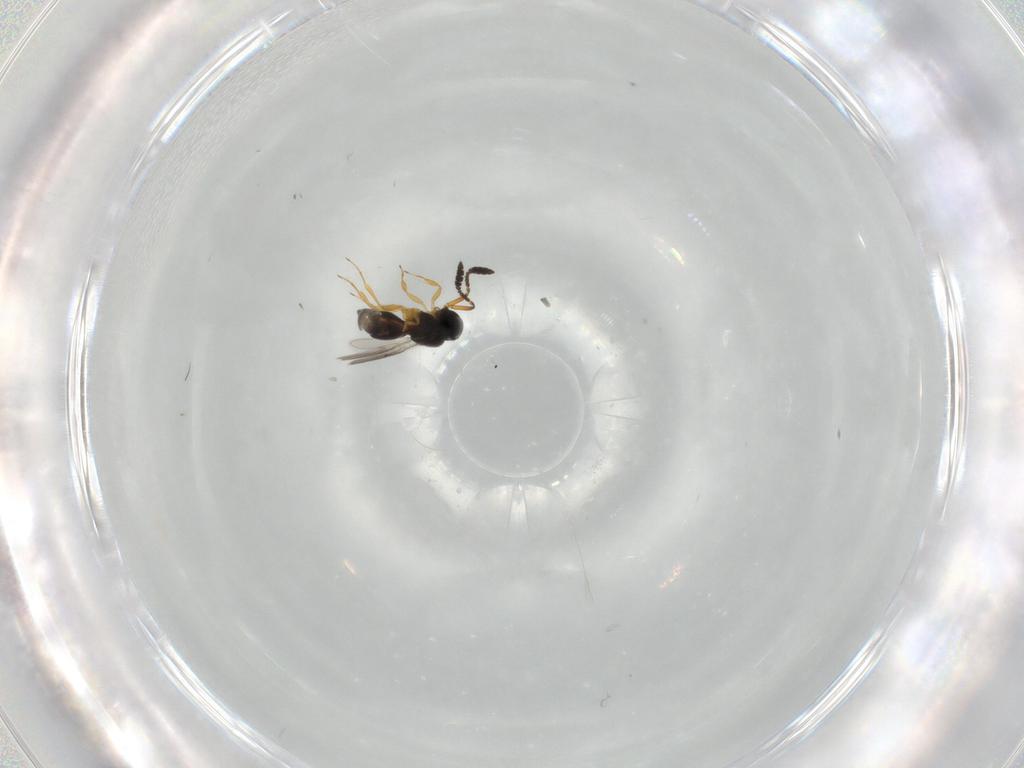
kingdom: Animalia
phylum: Arthropoda
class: Insecta
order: Hymenoptera
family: Scelionidae
